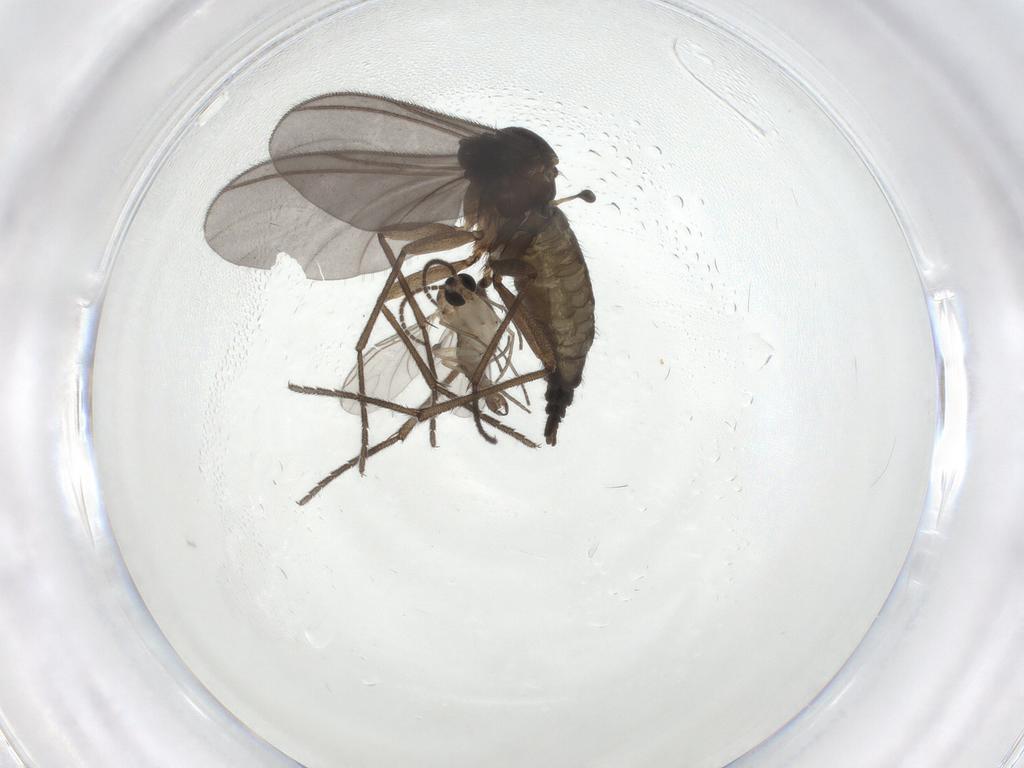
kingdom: Animalia
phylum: Arthropoda
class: Insecta
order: Diptera
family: Sciaridae
